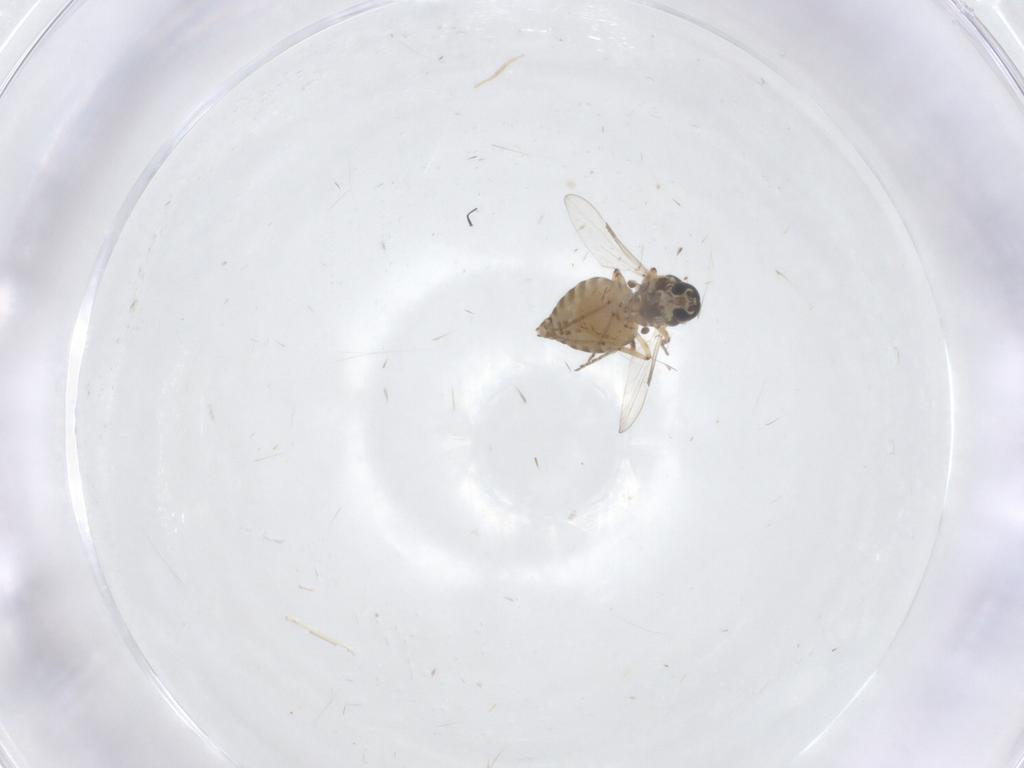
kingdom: Animalia
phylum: Arthropoda
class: Insecta
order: Diptera
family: Ceratopogonidae
